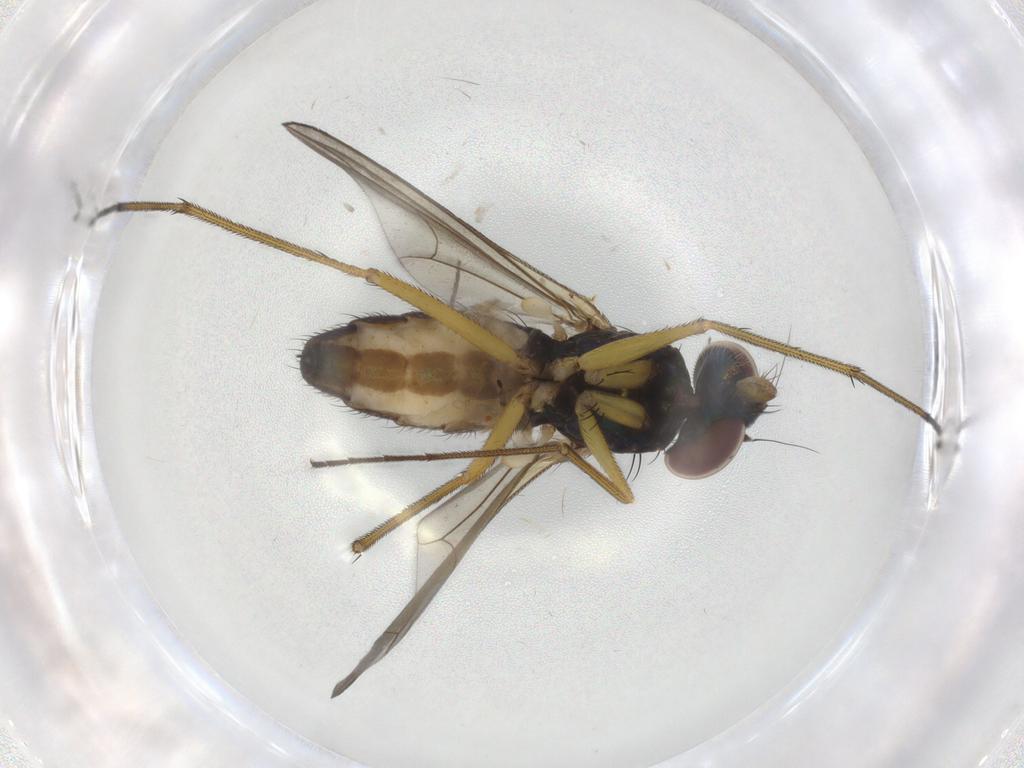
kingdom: Animalia
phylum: Arthropoda
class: Insecta
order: Diptera
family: Dolichopodidae
